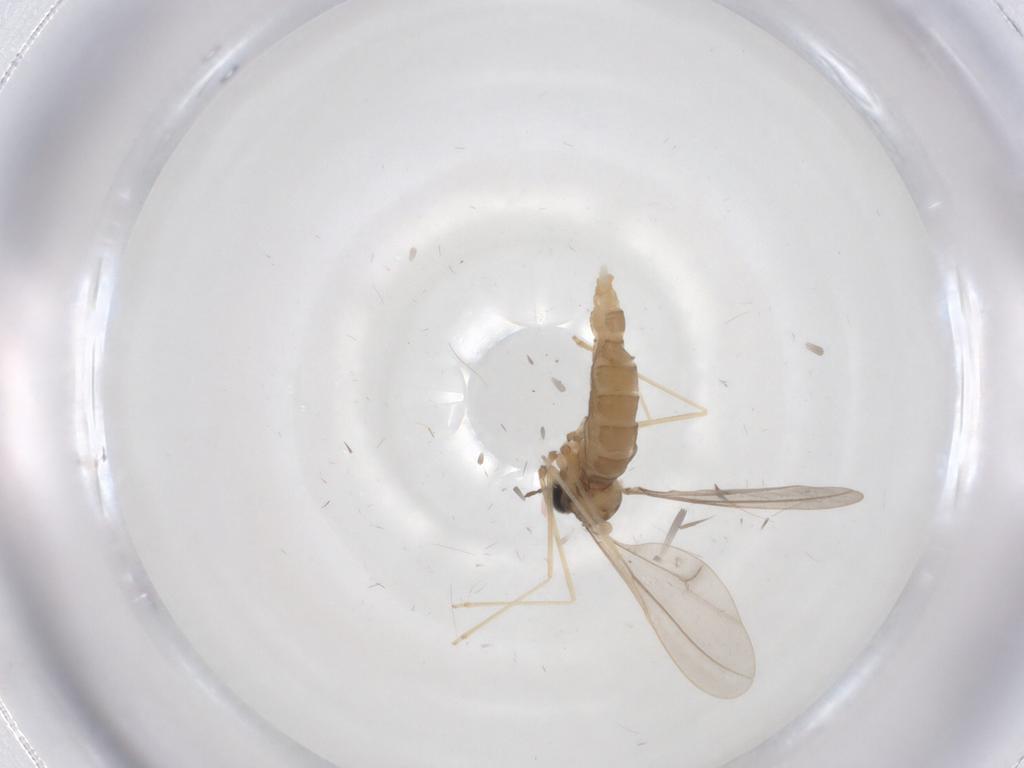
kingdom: Animalia
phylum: Arthropoda
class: Insecta
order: Diptera
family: Cecidomyiidae
